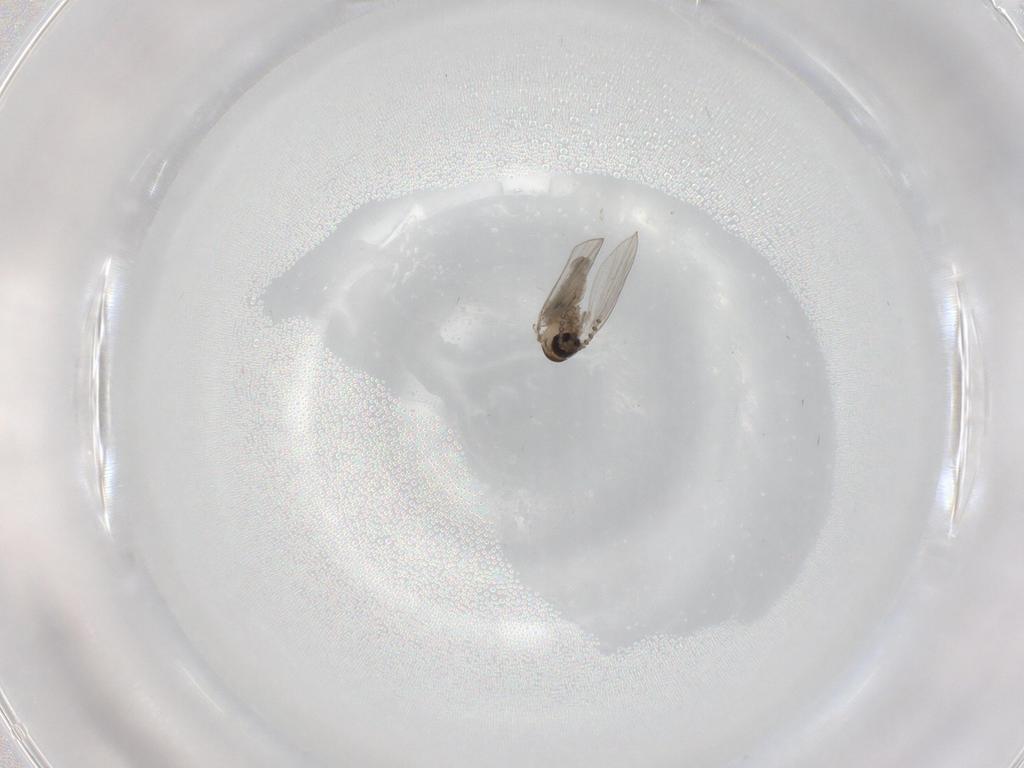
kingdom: Animalia
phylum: Arthropoda
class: Insecta
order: Diptera
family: Psychodidae
